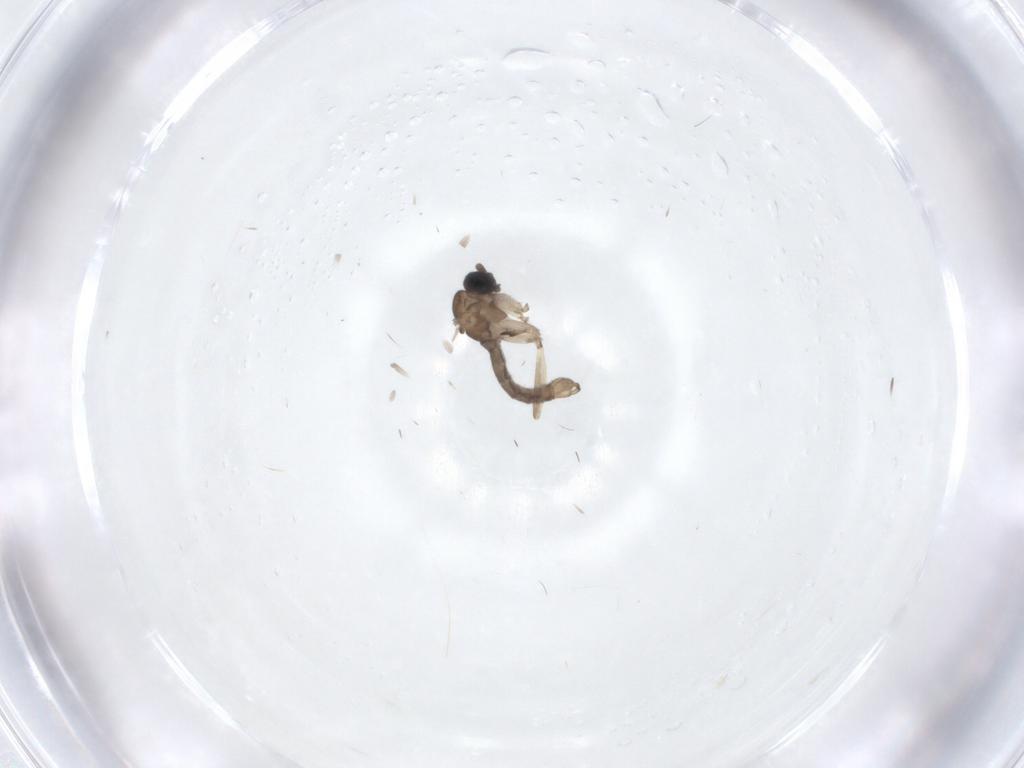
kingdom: Animalia
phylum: Arthropoda
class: Insecta
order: Diptera
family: Sciaridae
